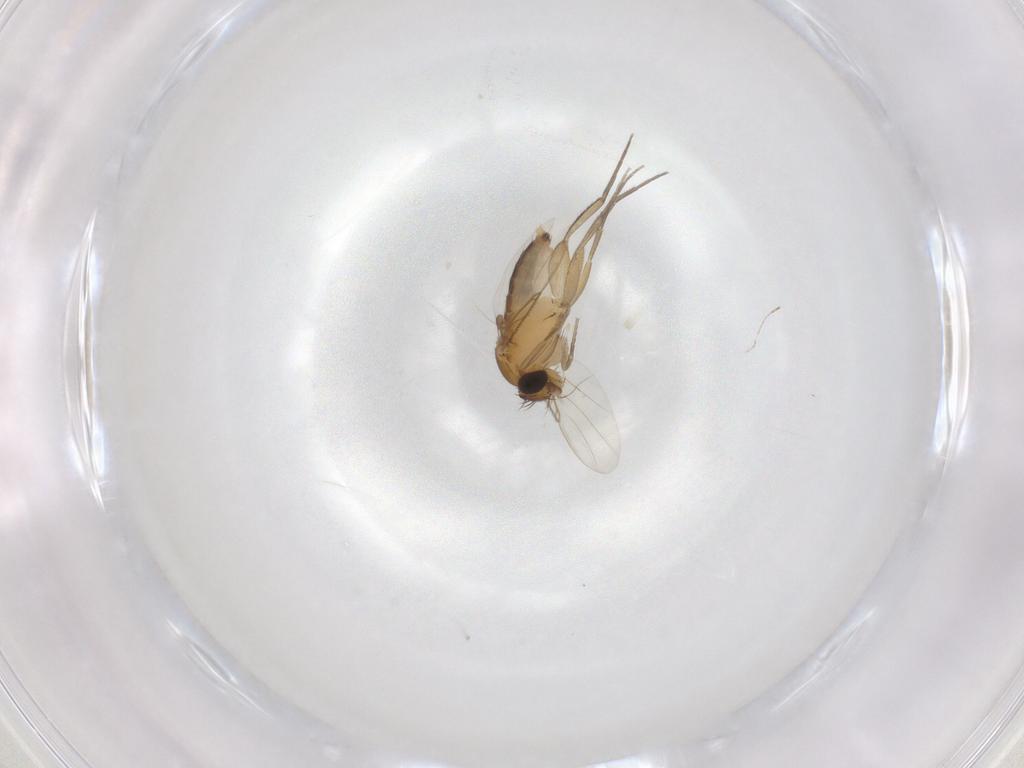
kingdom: Animalia
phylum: Arthropoda
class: Insecta
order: Diptera
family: Phoridae
